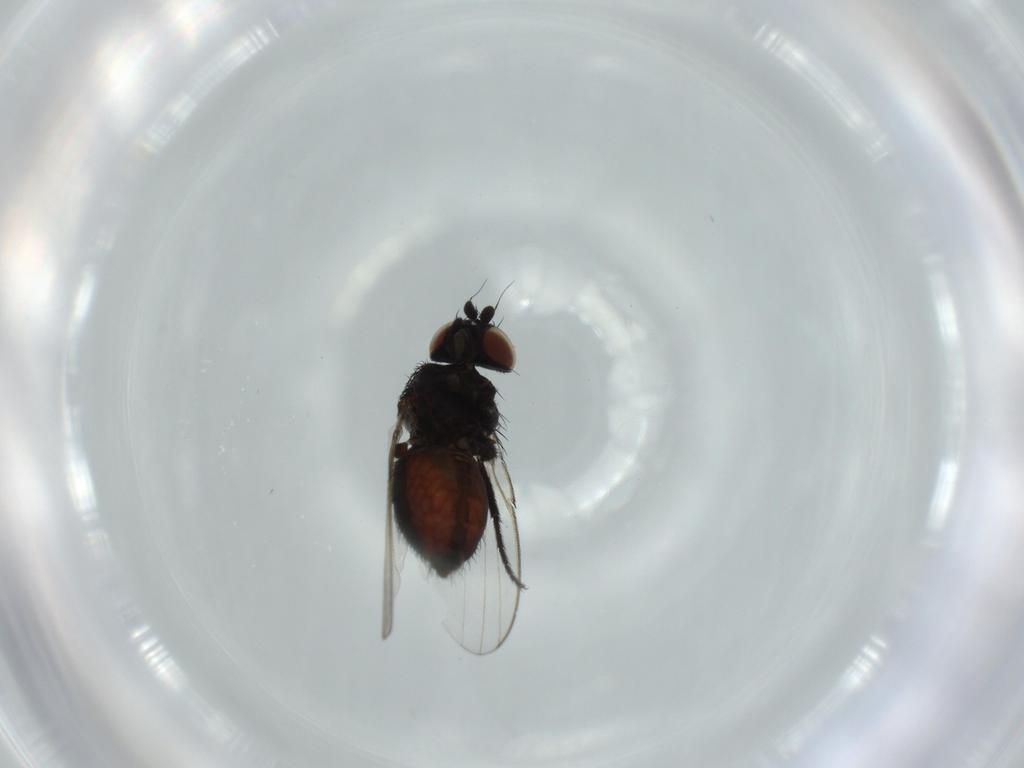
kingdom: Animalia
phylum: Arthropoda
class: Insecta
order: Diptera
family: Milichiidae
